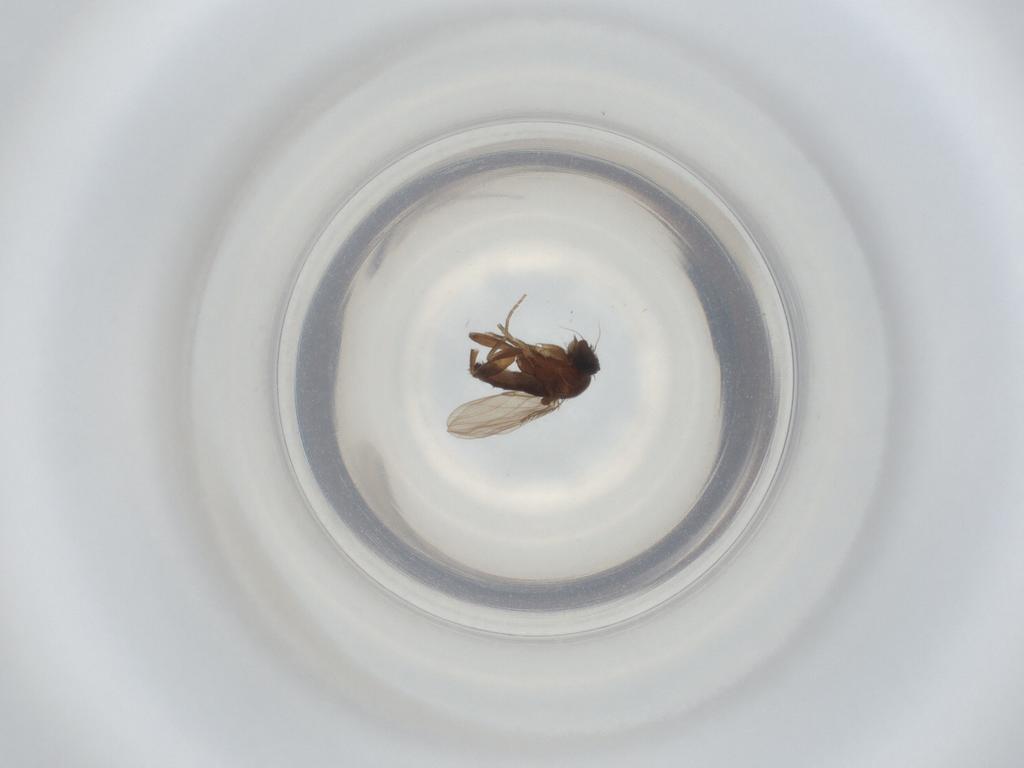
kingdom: Animalia
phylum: Arthropoda
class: Insecta
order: Diptera
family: Phoridae
